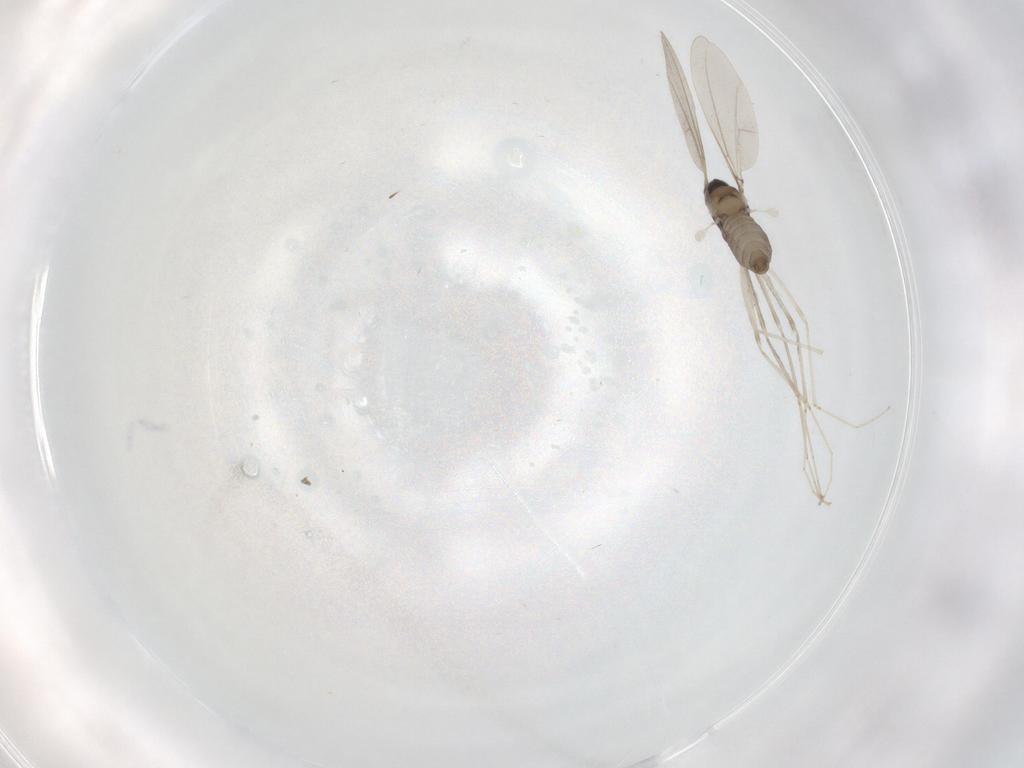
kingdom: Animalia
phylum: Arthropoda
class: Insecta
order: Diptera
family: Cecidomyiidae
